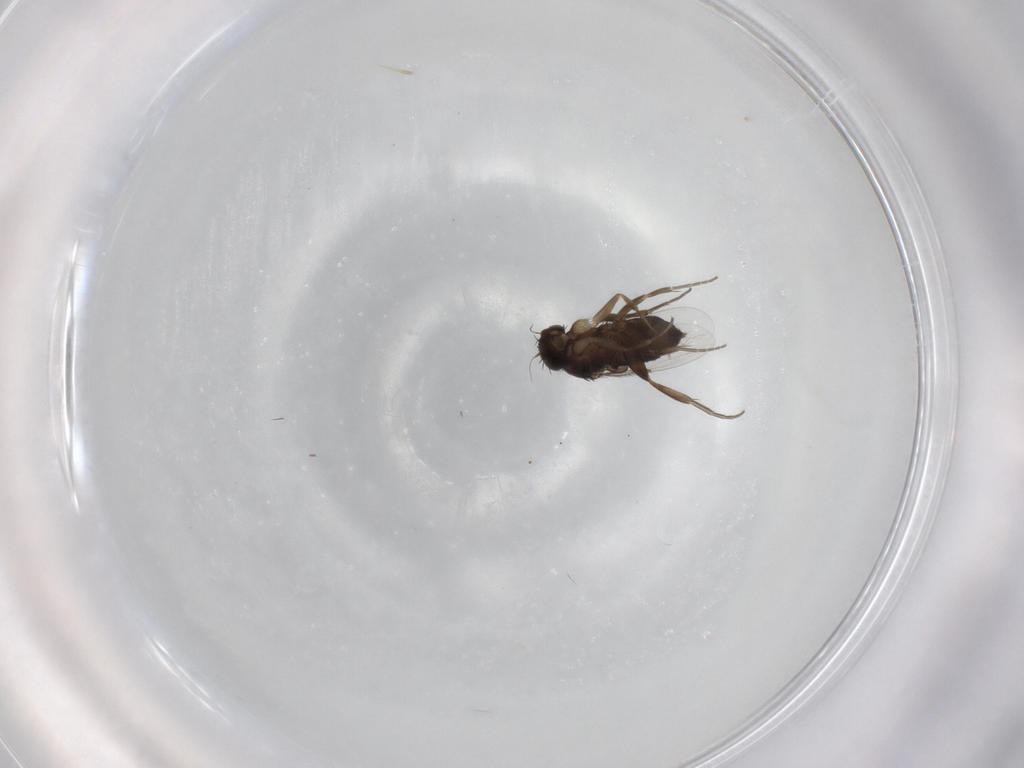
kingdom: Animalia
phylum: Arthropoda
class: Insecta
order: Diptera
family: Phoridae
